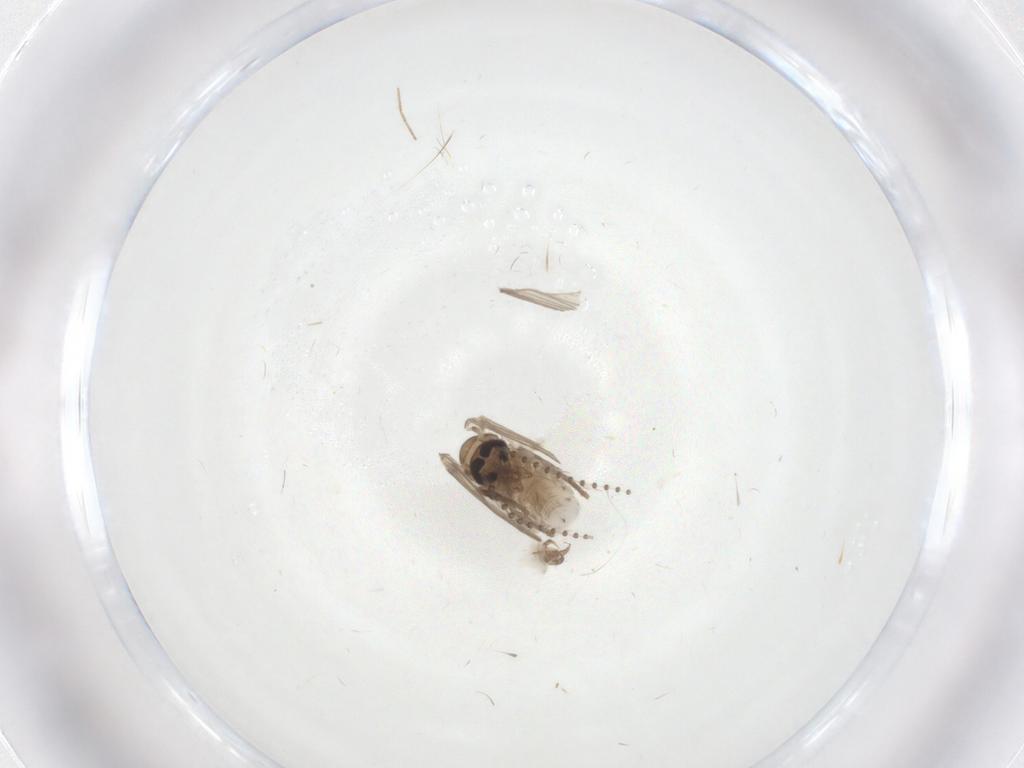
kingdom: Animalia
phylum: Arthropoda
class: Insecta
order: Diptera
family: Psychodidae
